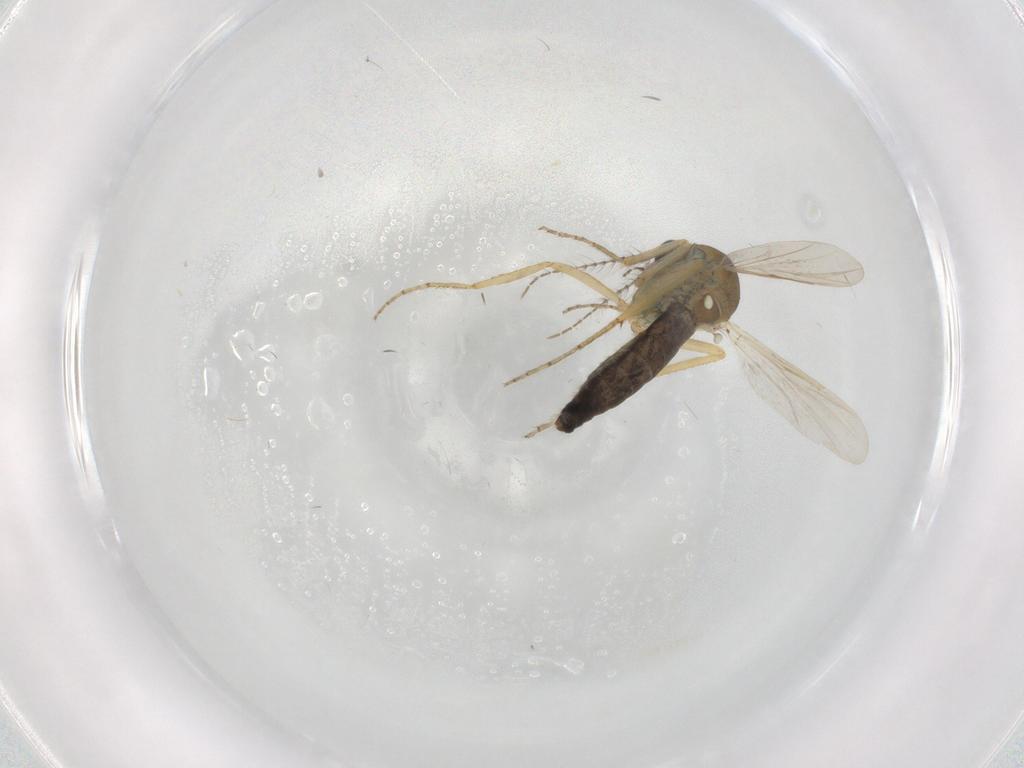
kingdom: Animalia
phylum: Arthropoda
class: Insecta
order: Diptera
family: Ceratopogonidae
